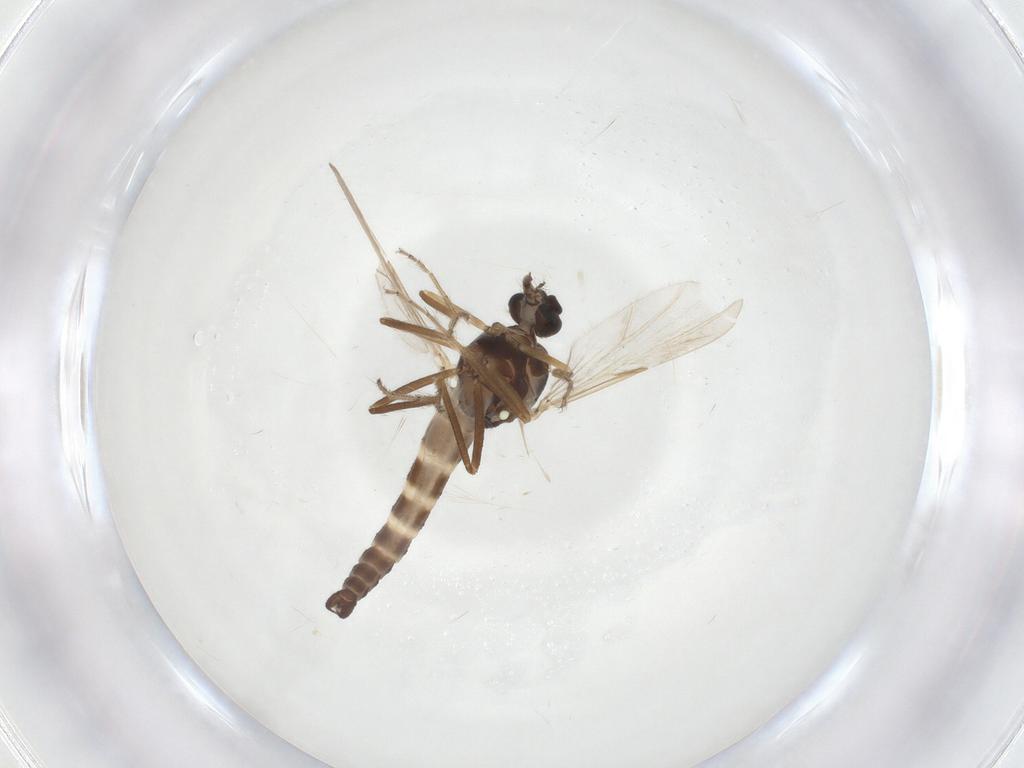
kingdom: Animalia
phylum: Arthropoda
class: Insecta
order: Diptera
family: Ceratopogonidae
